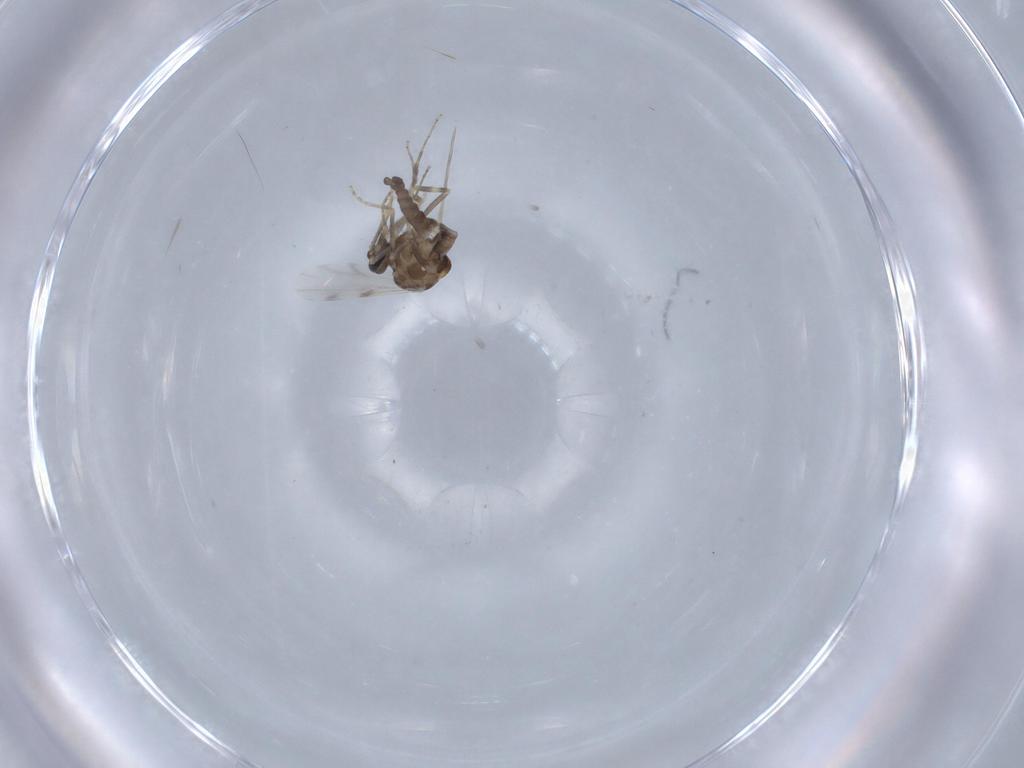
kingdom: Animalia
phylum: Arthropoda
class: Insecta
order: Diptera
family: Ceratopogonidae
